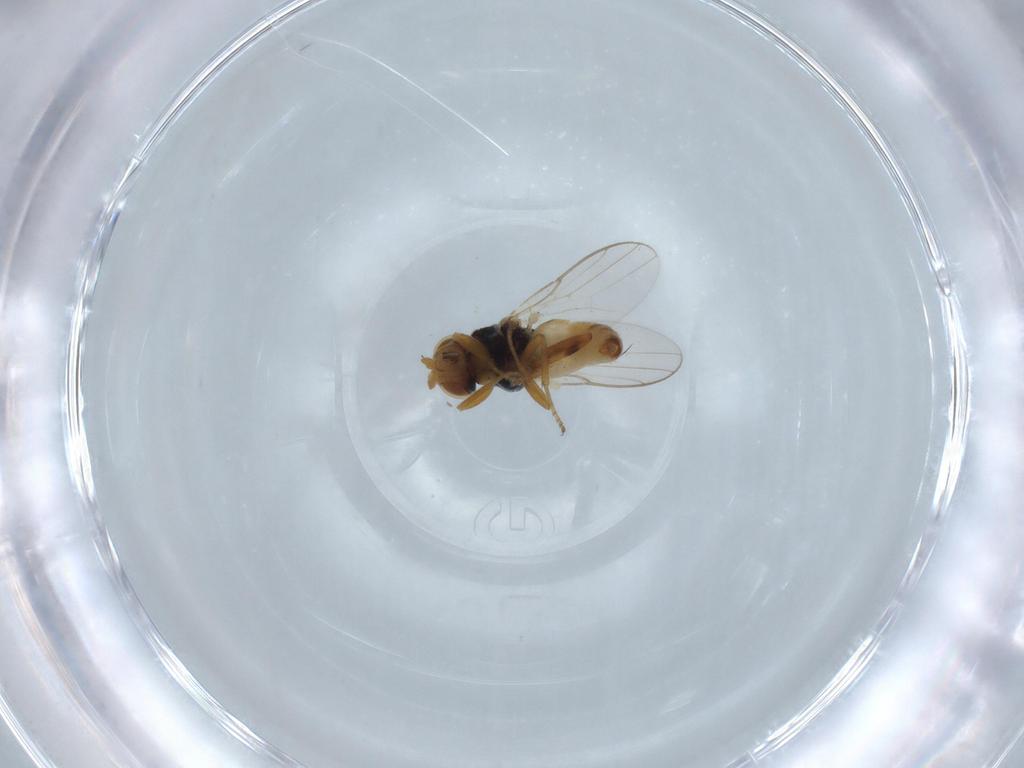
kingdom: Animalia
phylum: Arthropoda
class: Insecta
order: Diptera
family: Chloropidae
